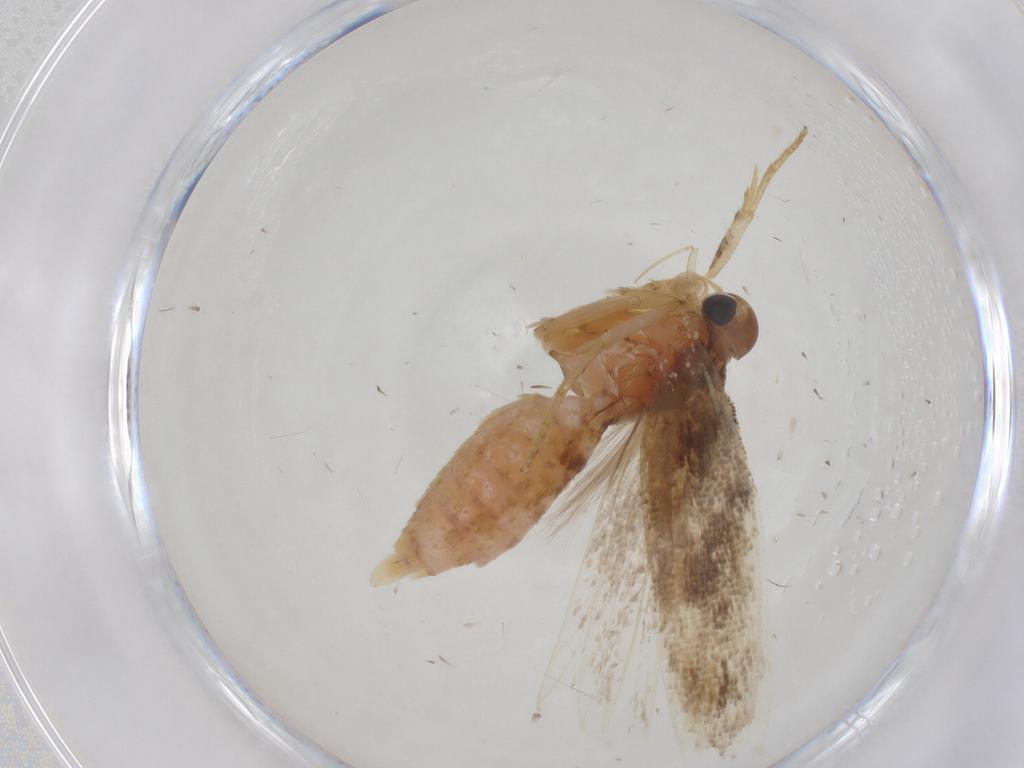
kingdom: Animalia
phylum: Arthropoda
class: Insecta
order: Lepidoptera
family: Gelechiidae
